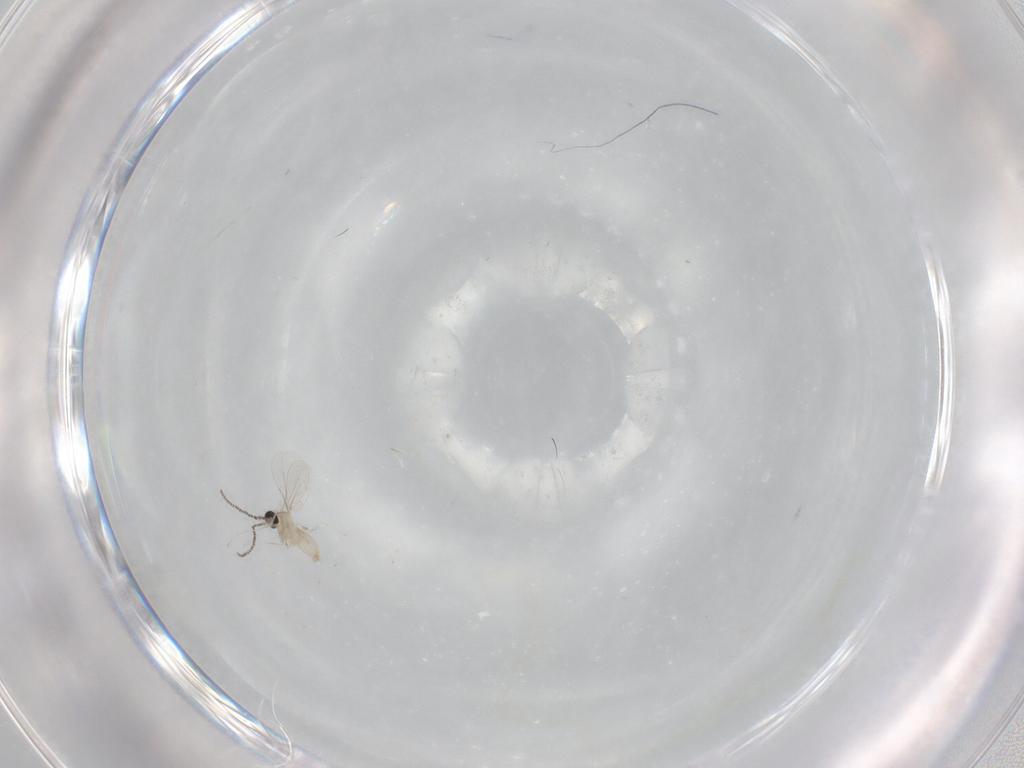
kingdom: Animalia
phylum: Arthropoda
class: Insecta
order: Diptera
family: Cecidomyiidae
